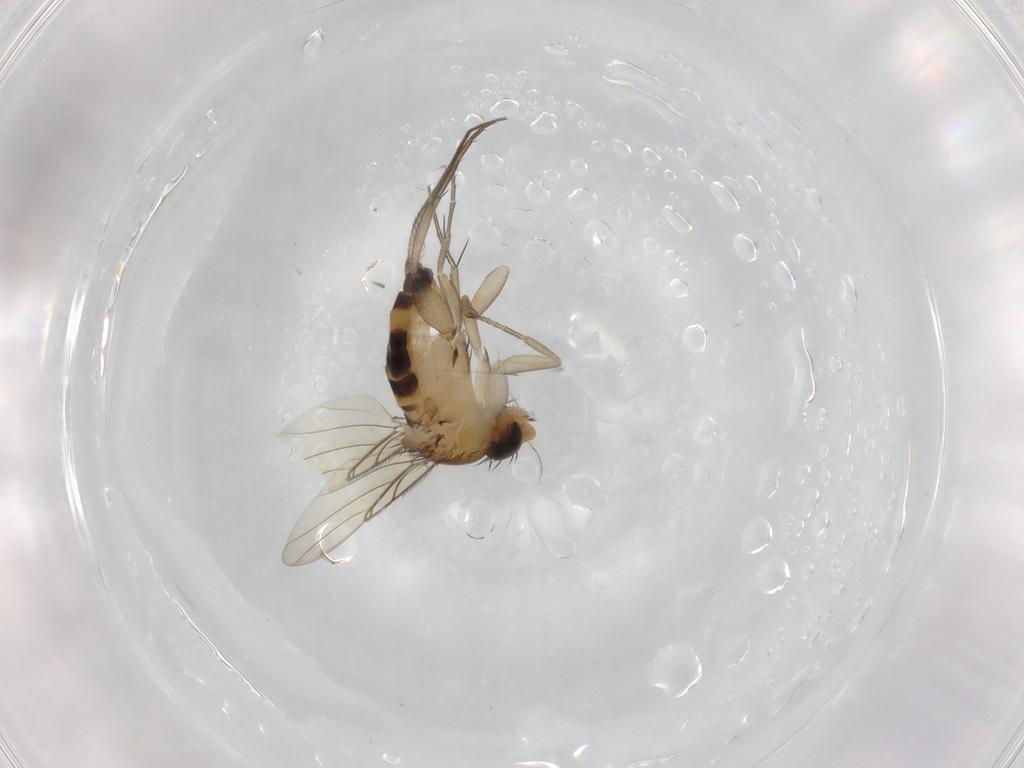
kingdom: Animalia
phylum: Arthropoda
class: Insecta
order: Diptera
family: Phoridae
